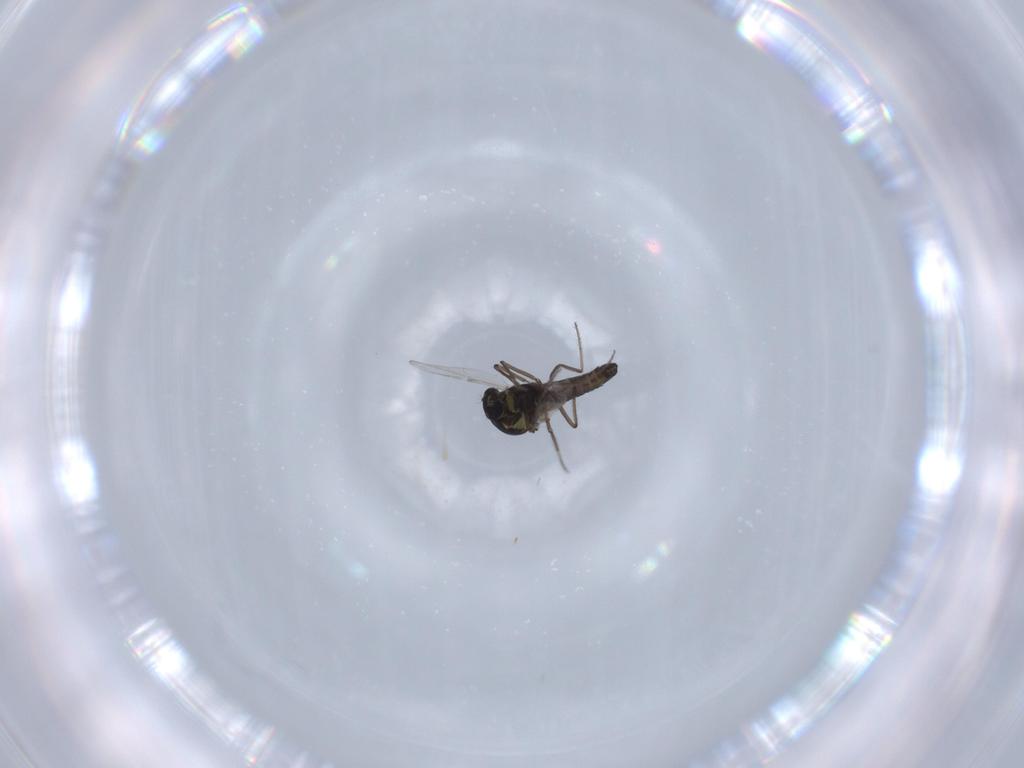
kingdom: Animalia
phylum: Arthropoda
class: Insecta
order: Diptera
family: Ceratopogonidae
